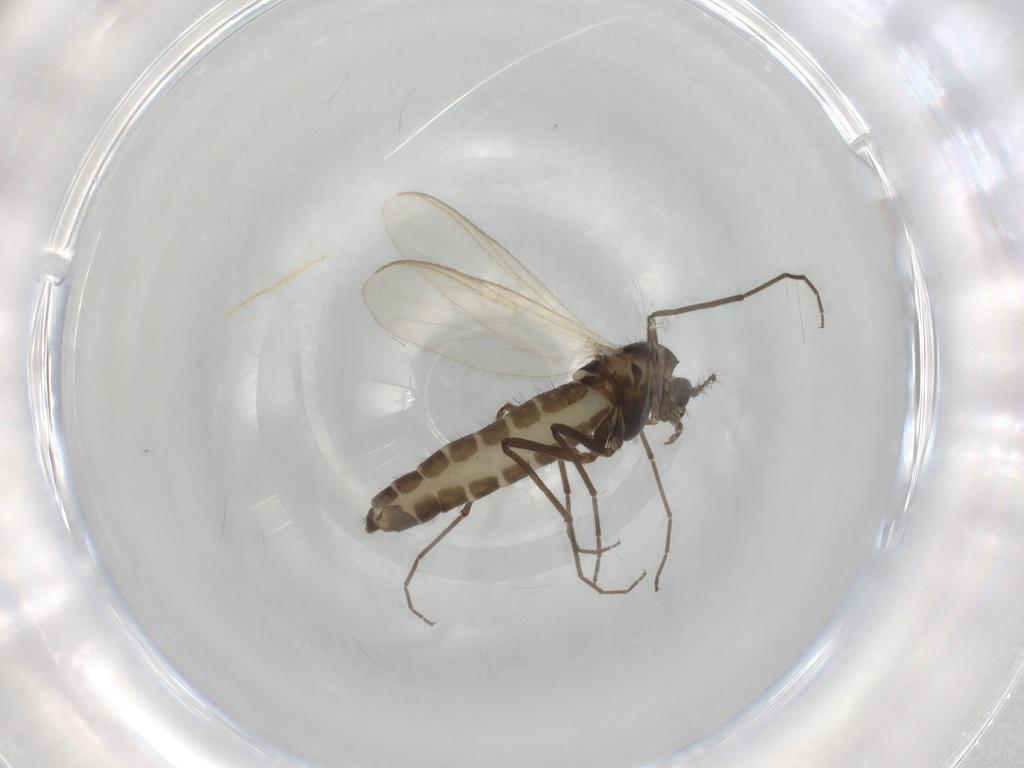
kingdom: Animalia
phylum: Arthropoda
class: Insecta
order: Diptera
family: Chironomidae
